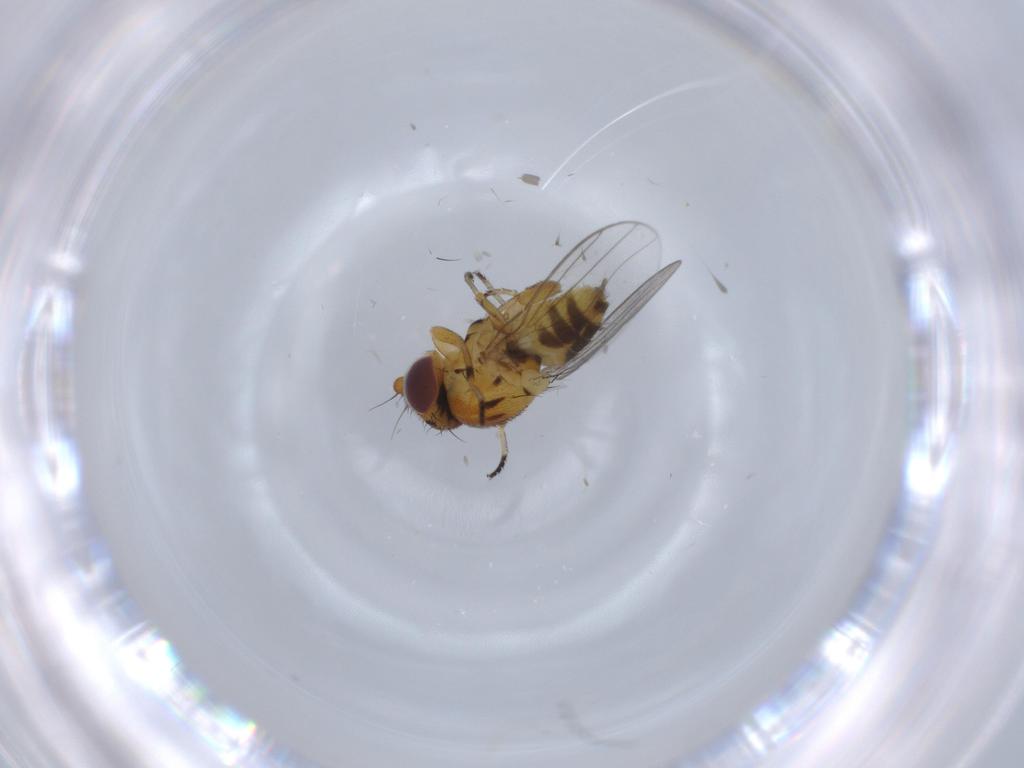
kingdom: Animalia
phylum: Arthropoda
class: Insecta
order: Diptera
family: Chloropidae
